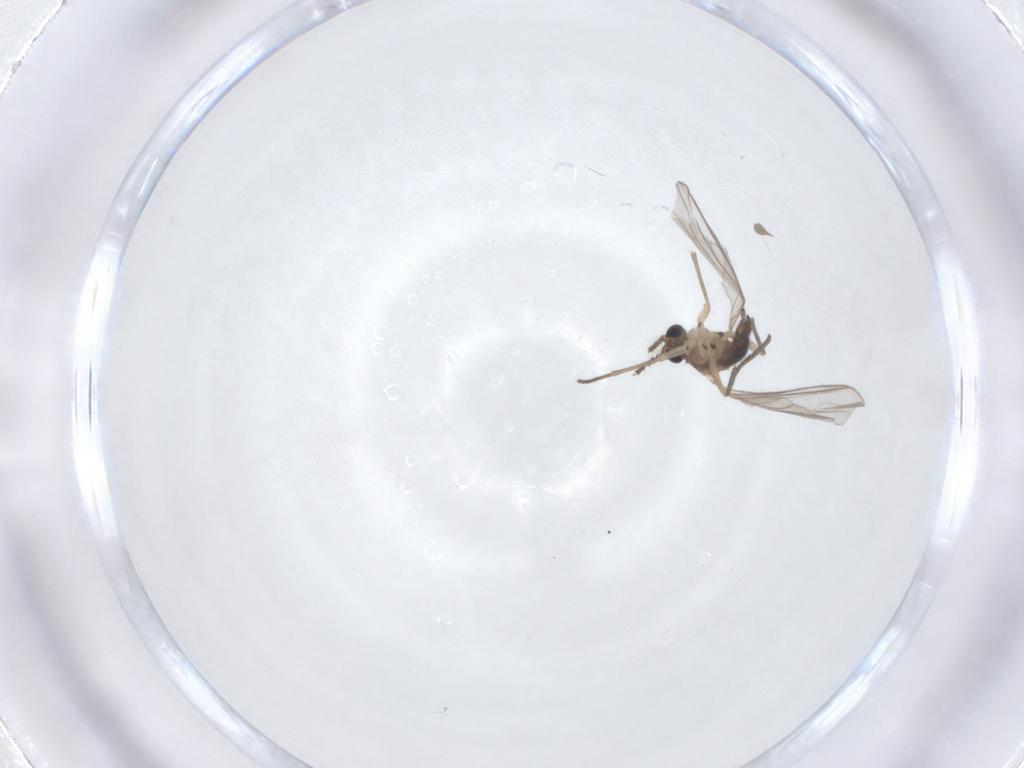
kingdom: Animalia
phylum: Arthropoda
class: Insecta
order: Diptera
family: Sciaridae
